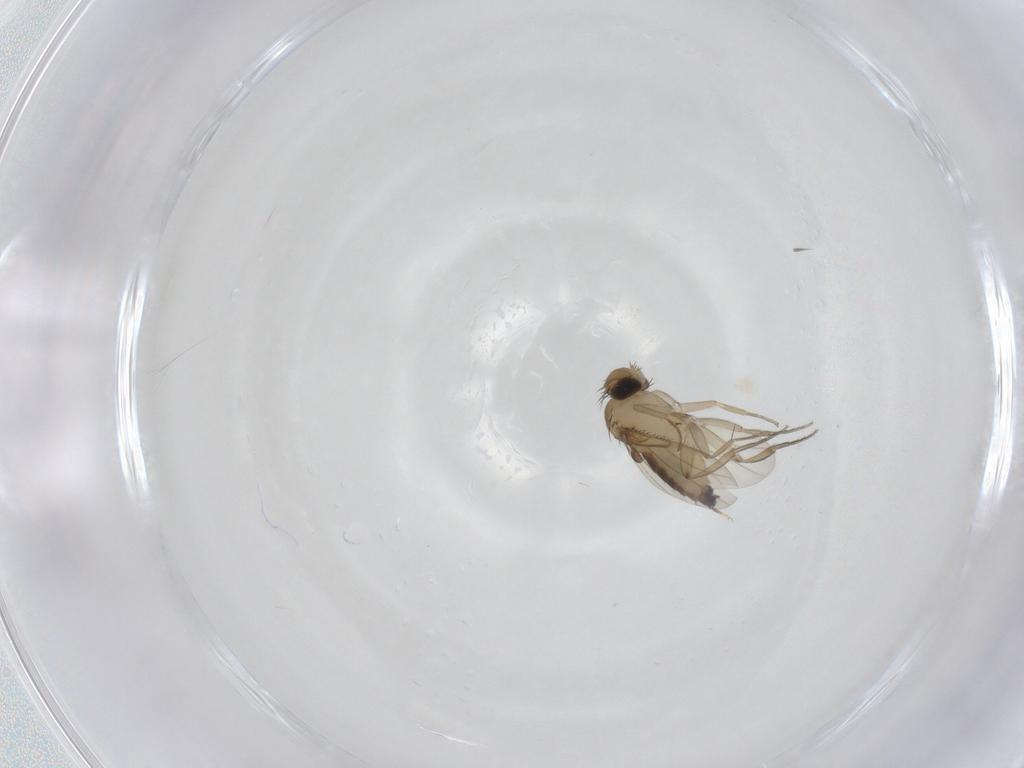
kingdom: Animalia
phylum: Arthropoda
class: Insecta
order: Diptera
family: Phoridae
